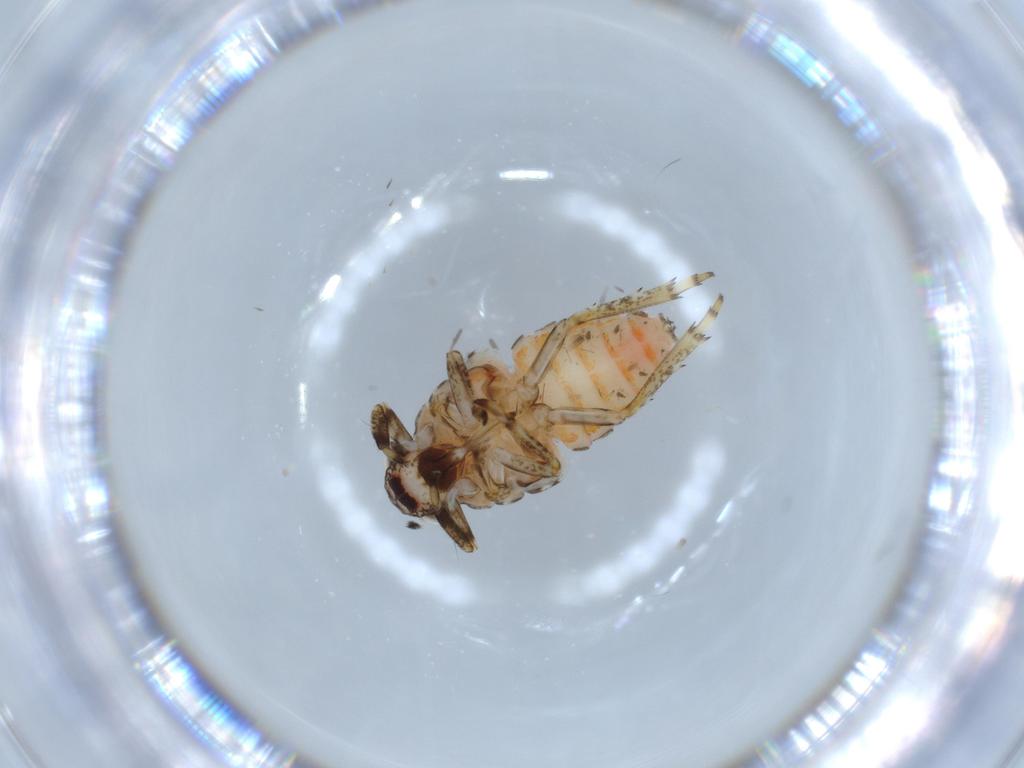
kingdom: Animalia
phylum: Arthropoda
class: Insecta
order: Hemiptera
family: Issidae
